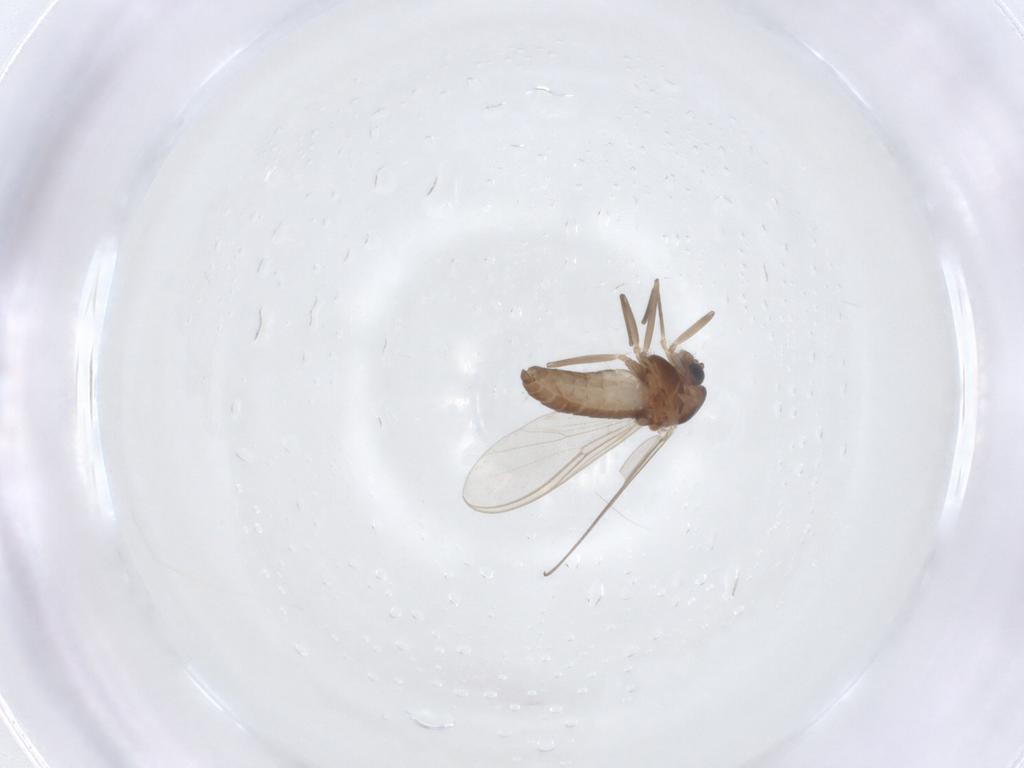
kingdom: Animalia
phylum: Arthropoda
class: Insecta
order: Diptera
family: Chironomidae
